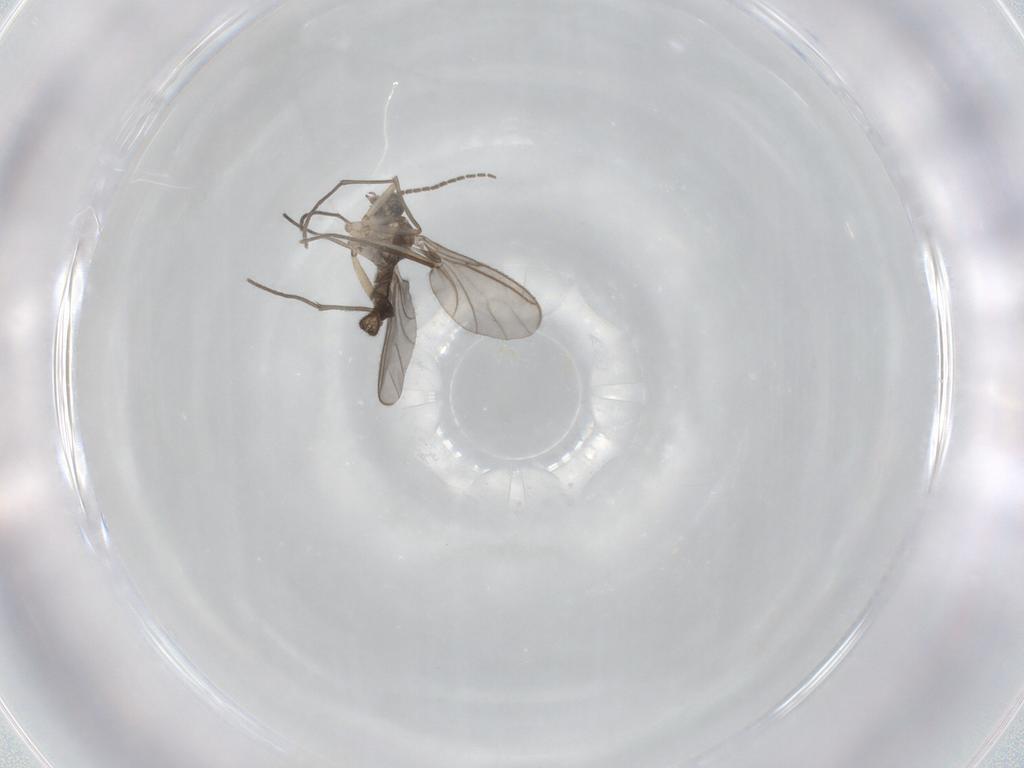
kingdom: Animalia
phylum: Arthropoda
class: Insecta
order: Diptera
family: Sciaridae
